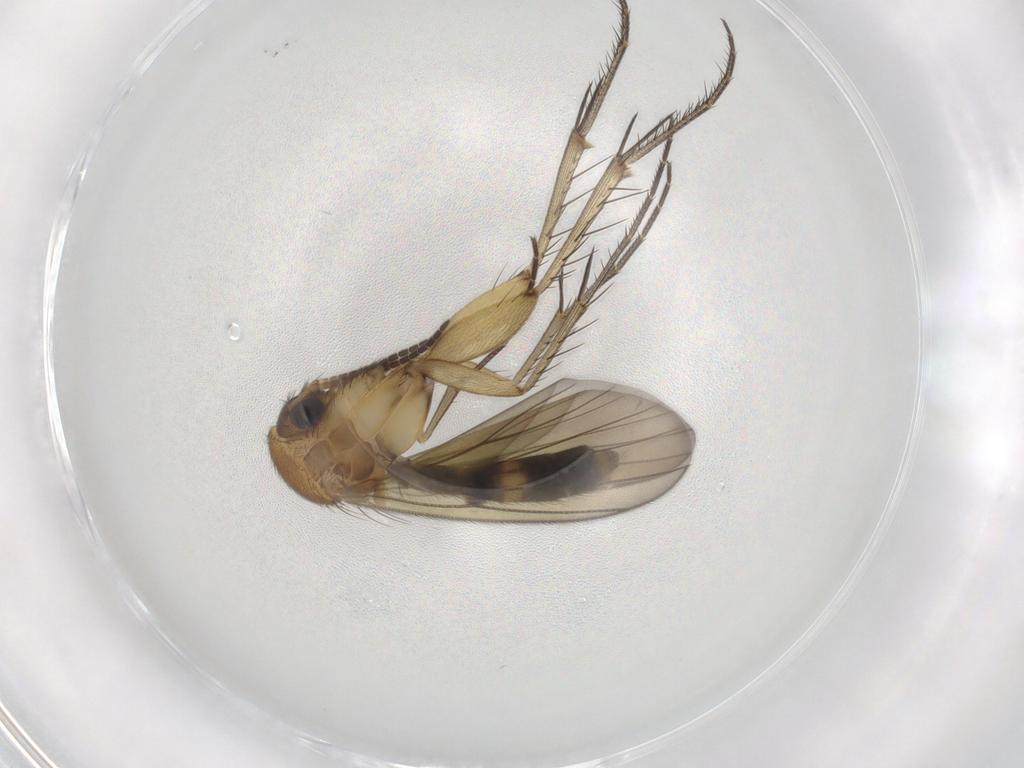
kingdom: Animalia
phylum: Arthropoda
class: Insecta
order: Diptera
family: Mycetophilidae
